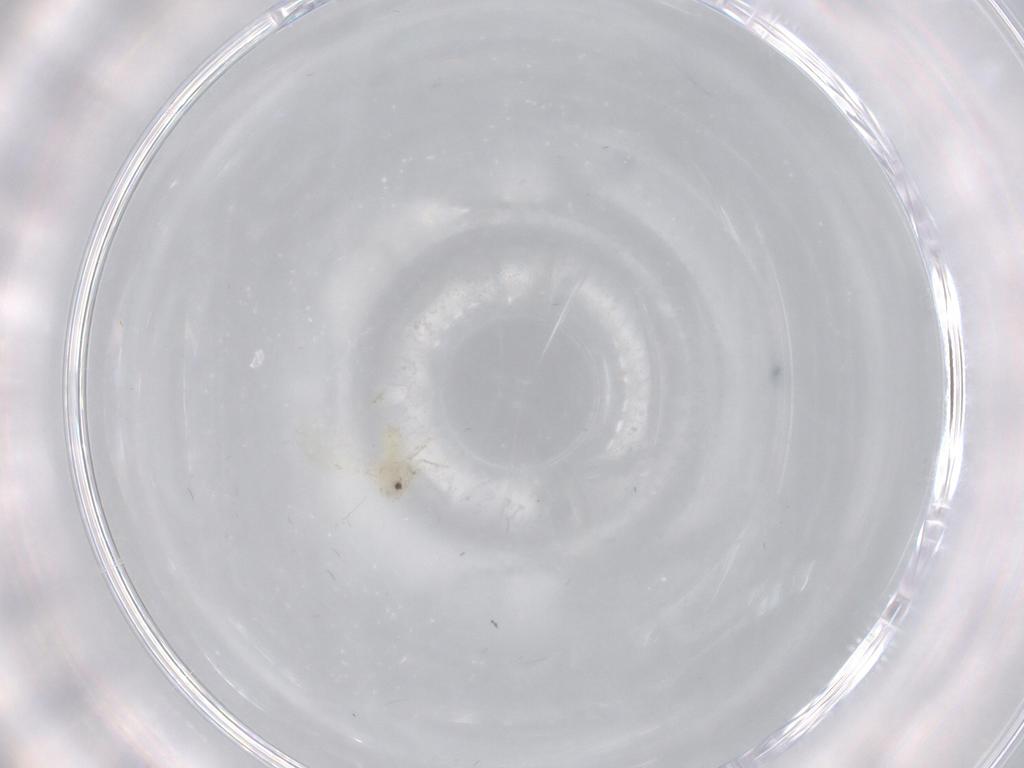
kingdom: Animalia
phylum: Arthropoda
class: Insecta
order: Hemiptera
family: Aleyrodidae
